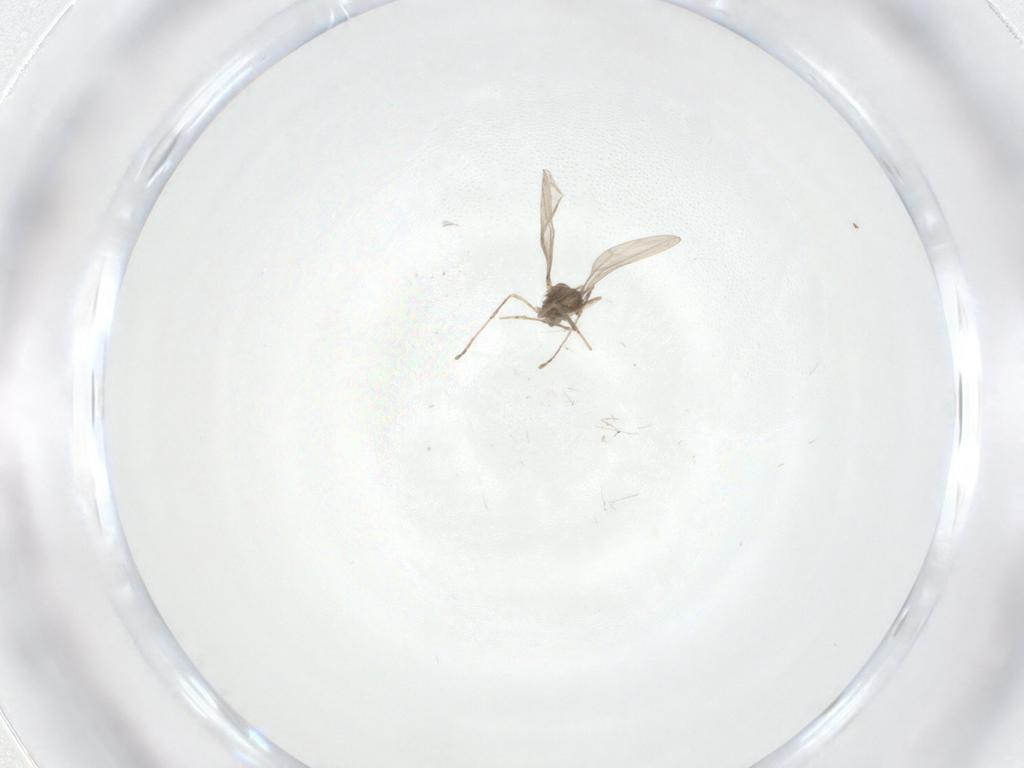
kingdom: Animalia
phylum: Arthropoda
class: Insecta
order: Diptera
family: Cecidomyiidae
